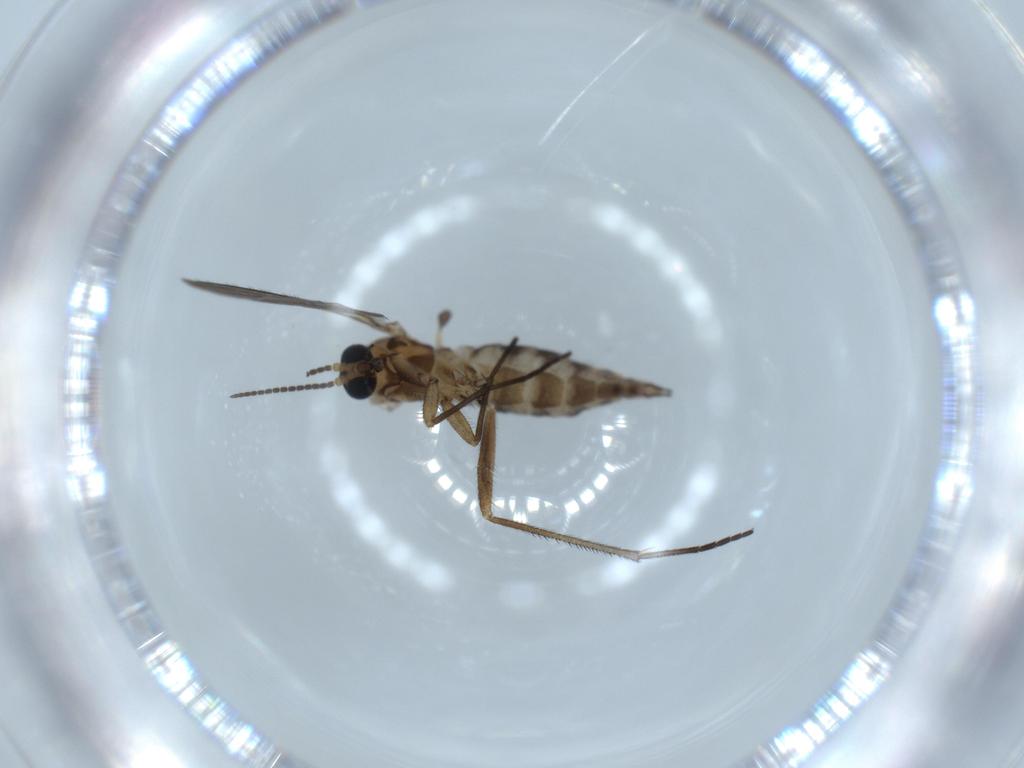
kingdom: Animalia
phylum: Arthropoda
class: Insecta
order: Diptera
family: Sciaridae
